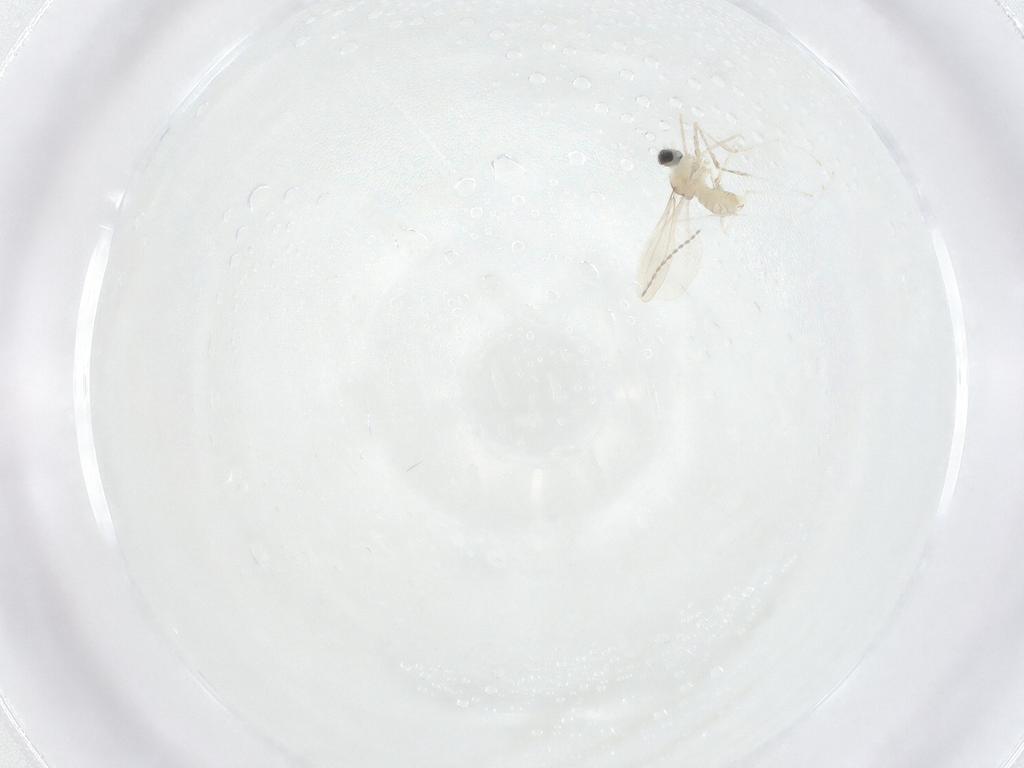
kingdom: Animalia
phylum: Arthropoda
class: Insecta
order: Diptera
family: Cecidomyiidae
